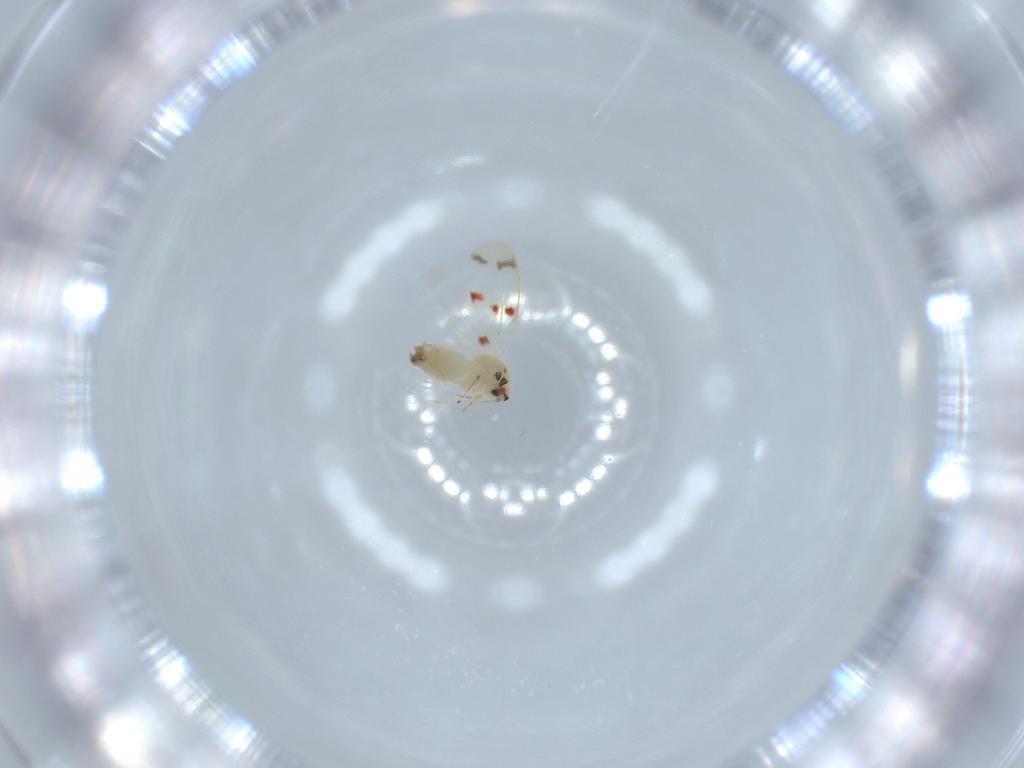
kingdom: Animalia
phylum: Arthropoda
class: Insecta
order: Hemiptera
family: Aleyrodidae
